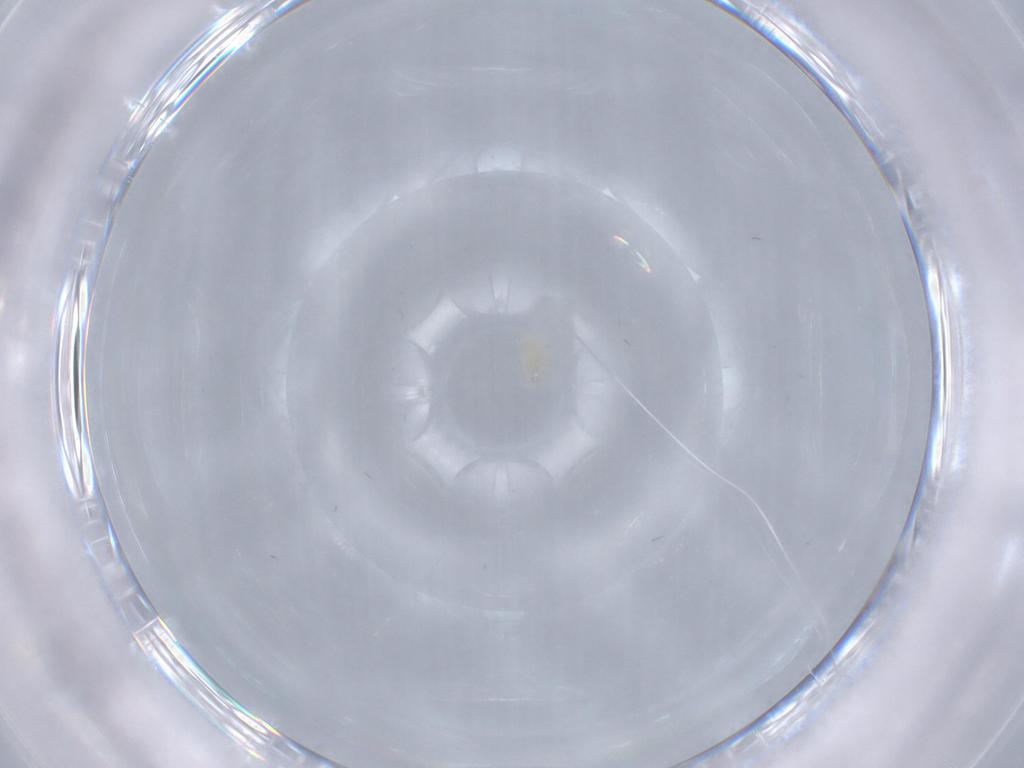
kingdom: Animalia
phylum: Arthropoda
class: Arachnida
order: Trombidiformes
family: Eupodidae
